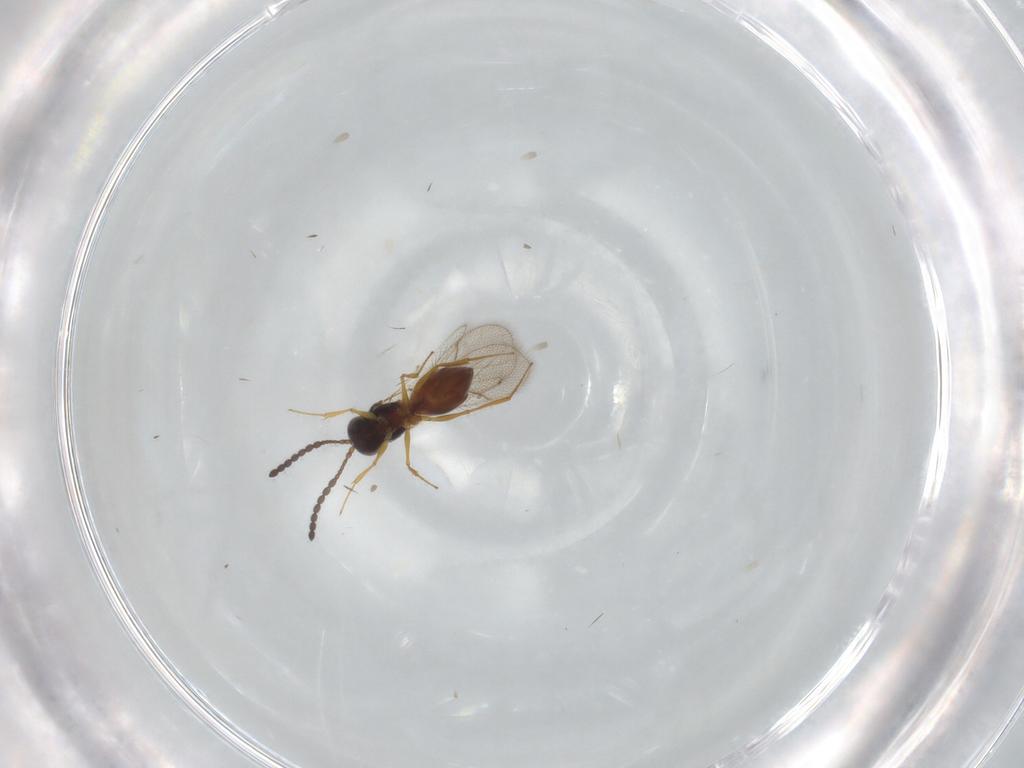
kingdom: Animalia
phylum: Arthropoda
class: Insecta
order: Hymenoptera
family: Figitidae
